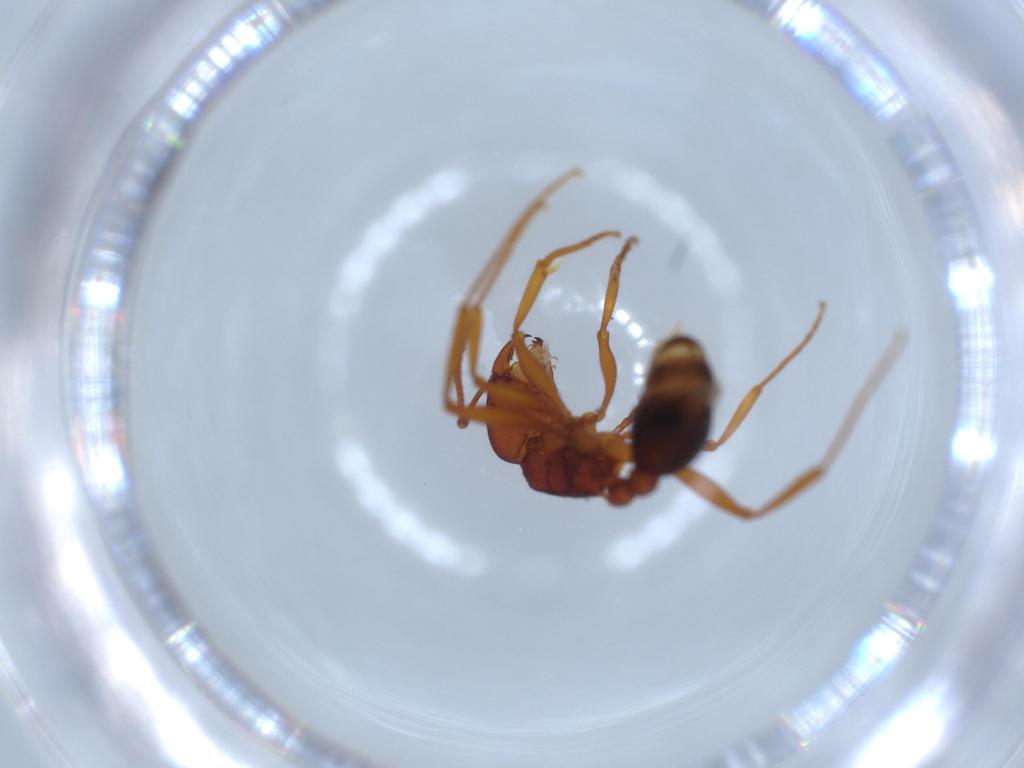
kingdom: Animalia
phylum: Arthropoda
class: Insecta
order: Hymenoptera
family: Formicidae
